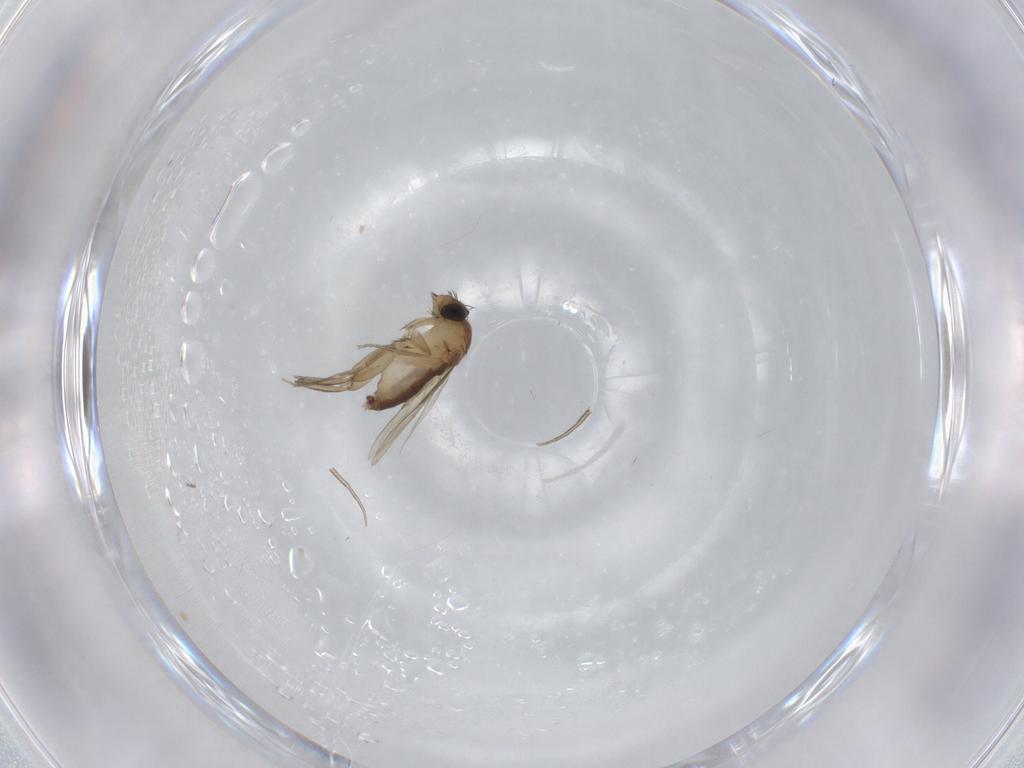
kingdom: Animalia
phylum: Arthropoda
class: Insecta
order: Diptera
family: Phoridae
